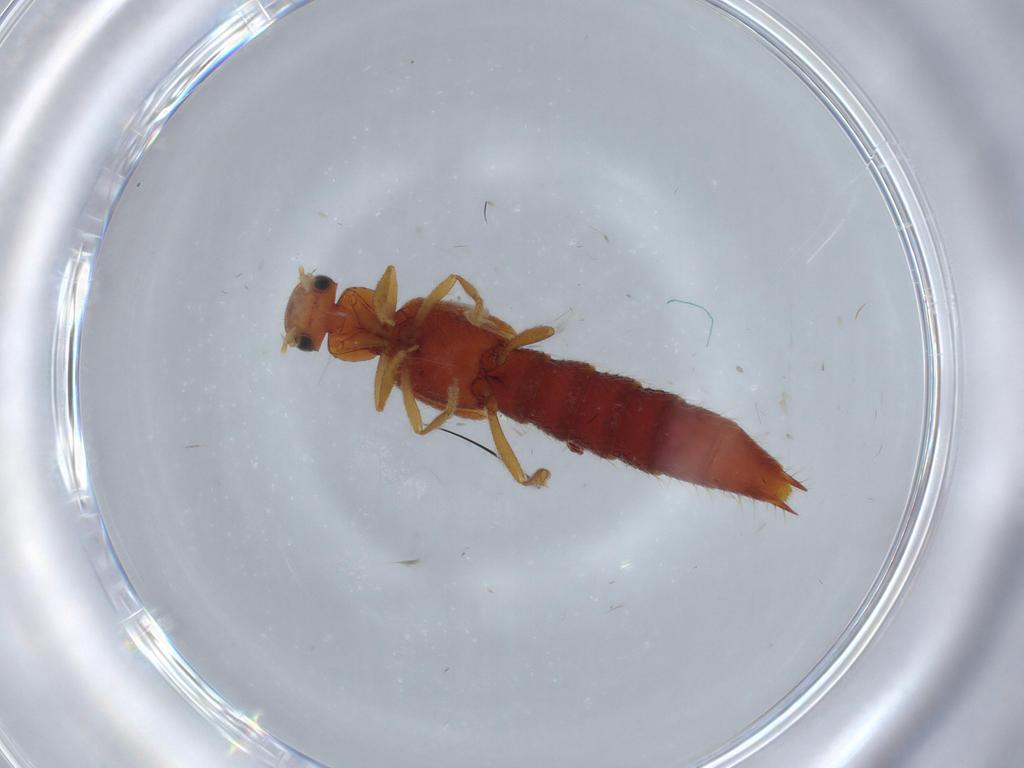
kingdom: Animalia
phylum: Arthropoda
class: Insecta
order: Coleoptera
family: Staphylinidae
